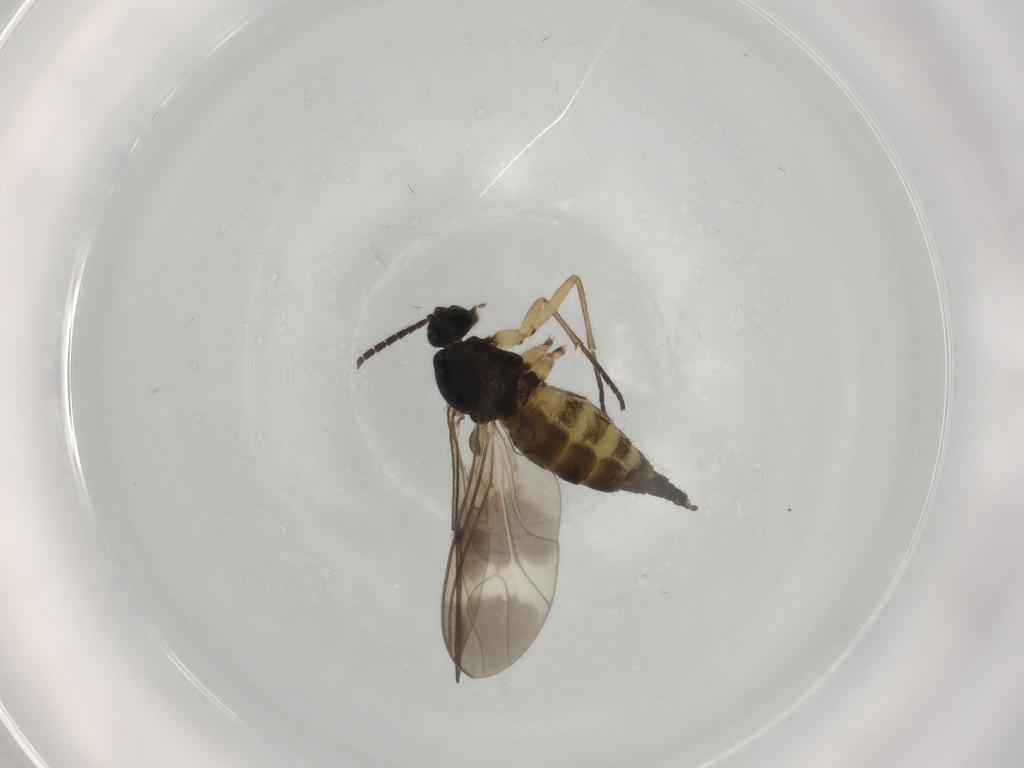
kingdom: Animalia
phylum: Arthropoda
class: Insecta
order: Diptera
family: Sciaridae
